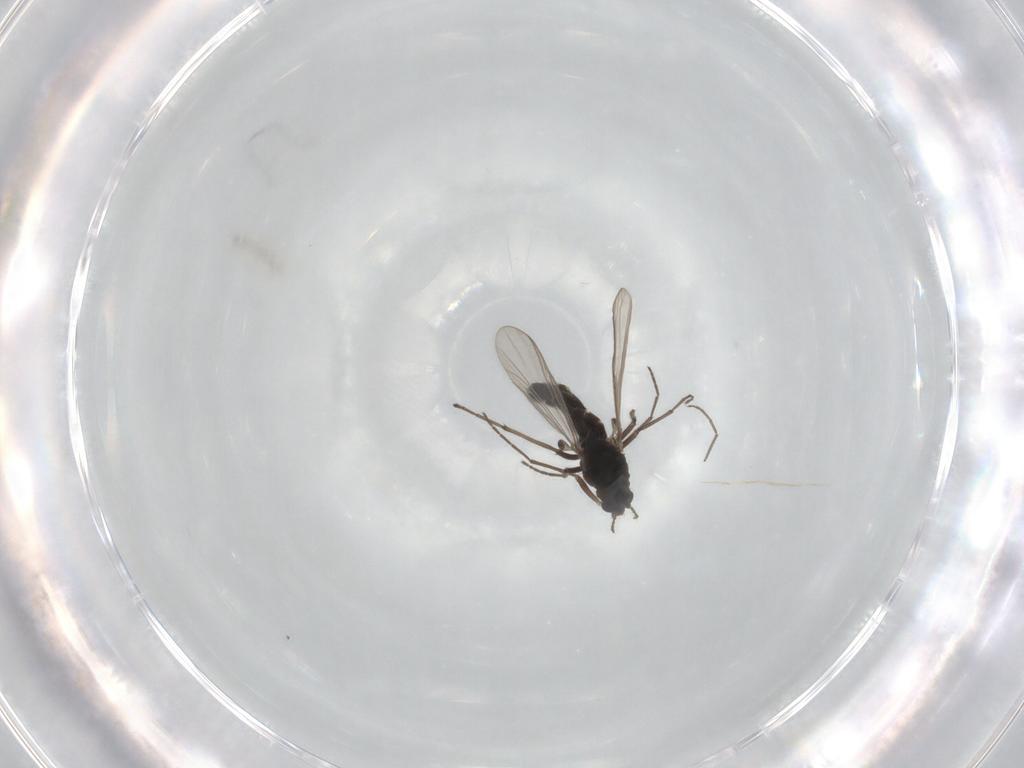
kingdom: Animalia
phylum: Arthropoda
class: Insecta
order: Diptera
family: Chironomidae
